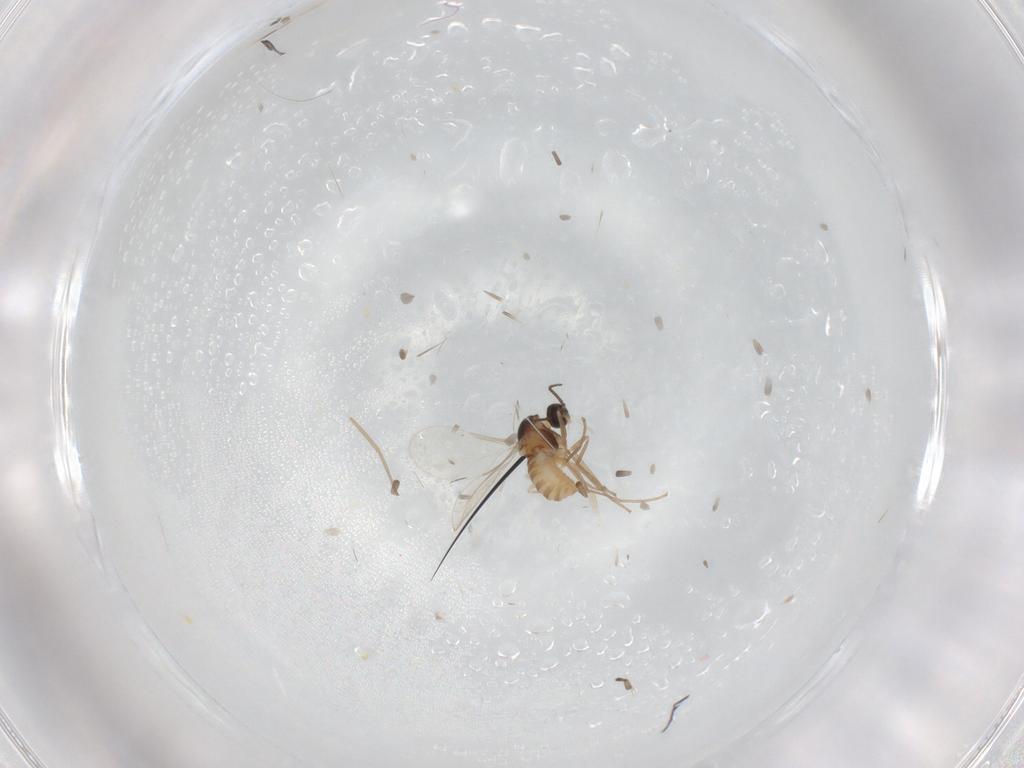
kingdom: Animalia
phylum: Arthropoda
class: Insecta
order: Diptera
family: Cecidomyiidae
